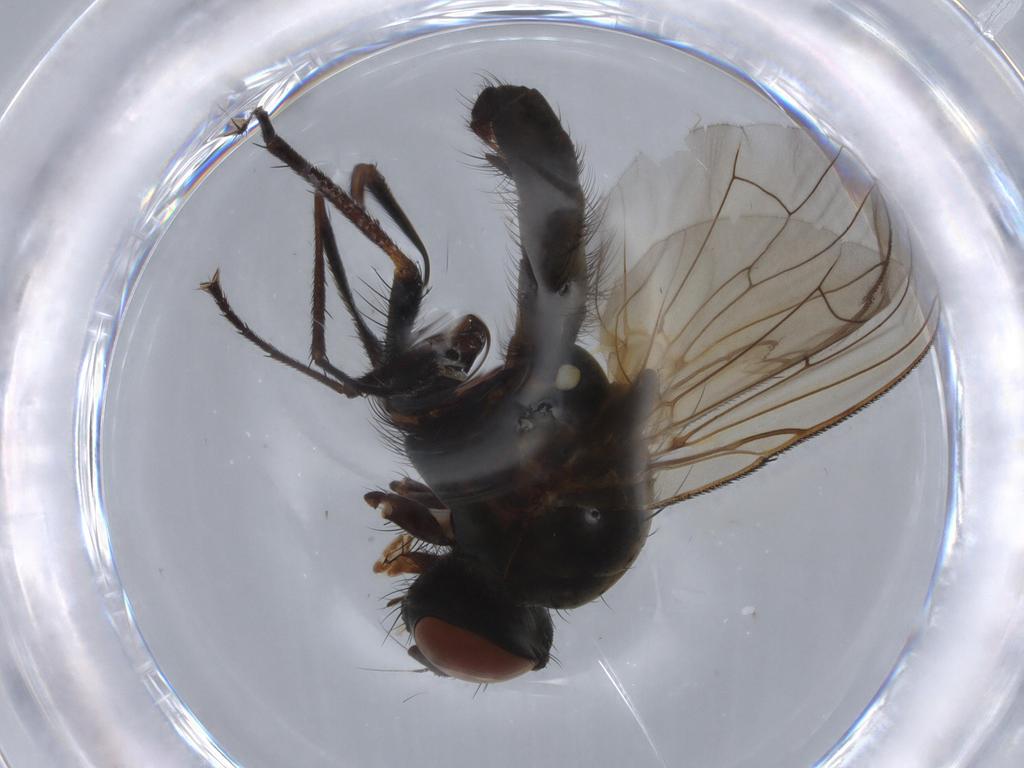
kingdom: Animalia
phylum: Arthropoda
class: Insecta
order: Diptera
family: Anthomyiidae
